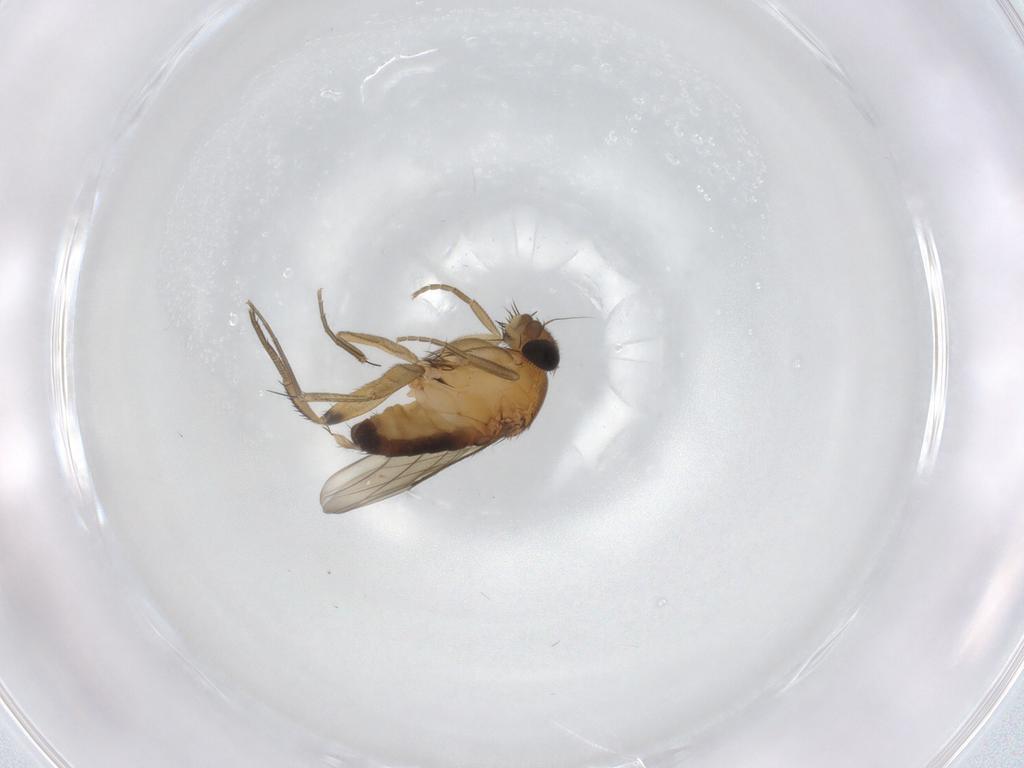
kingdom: Animalia
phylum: Arthropoda
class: Insecta
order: Diptera
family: Phoridae
